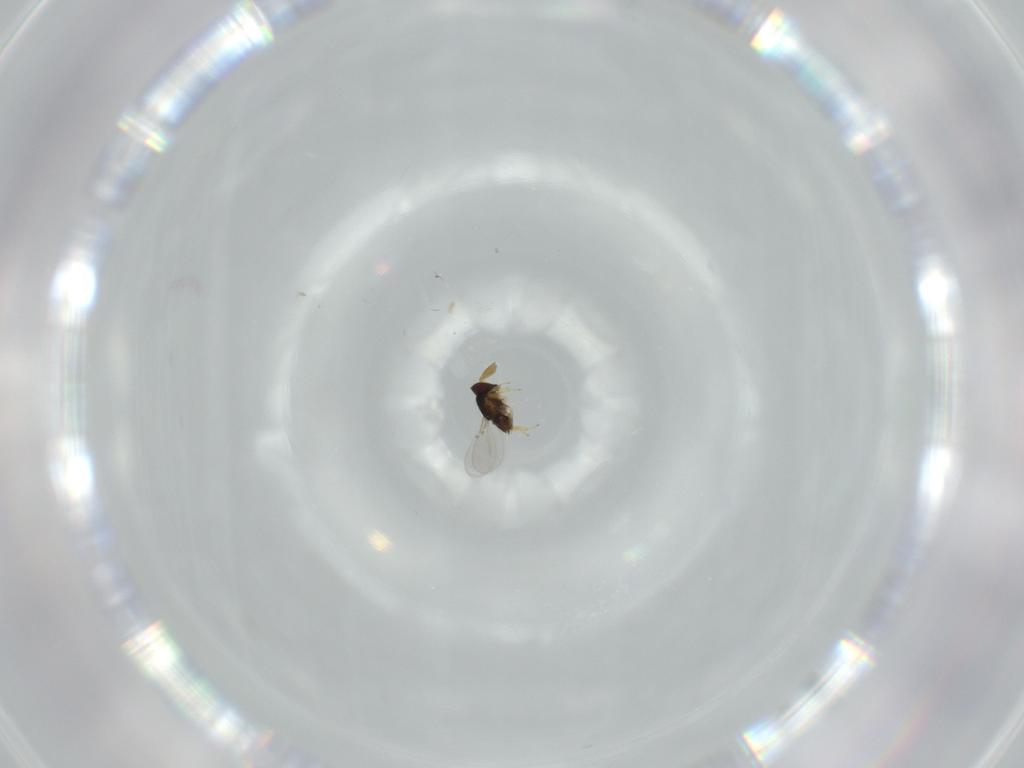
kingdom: Animalia
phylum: Arthropoda
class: Insecta
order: Hymenoptera
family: Encyrtidae
